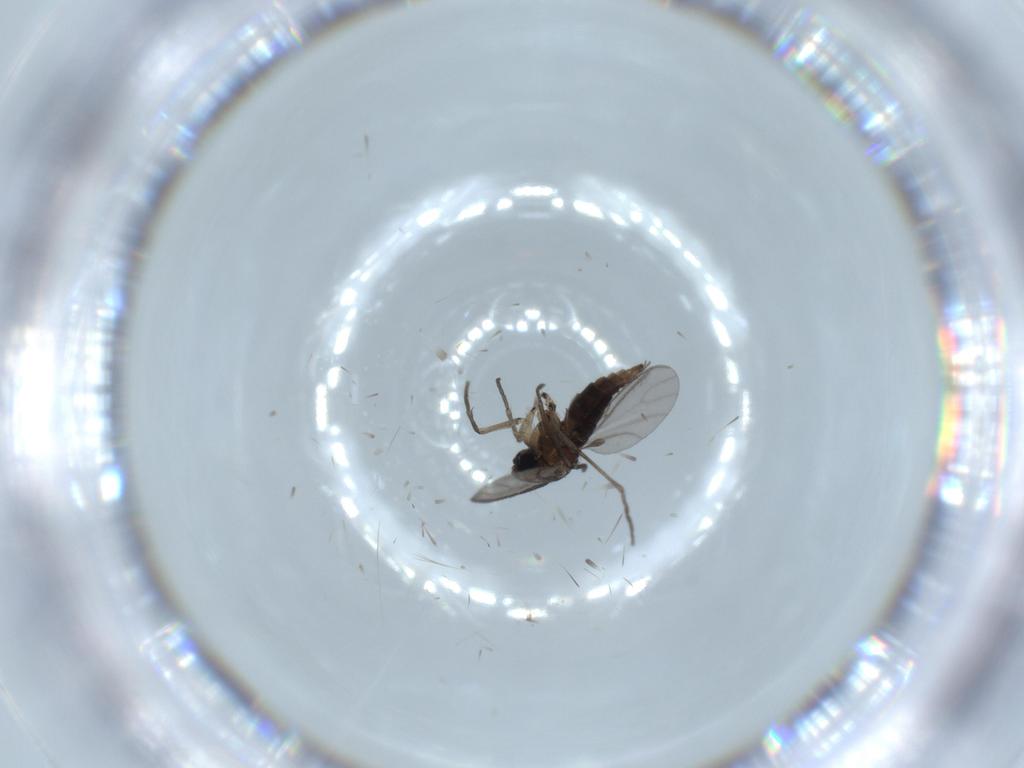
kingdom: Animalia
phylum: Arthropoda
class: Insecta
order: Diptera
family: Sciaridae
